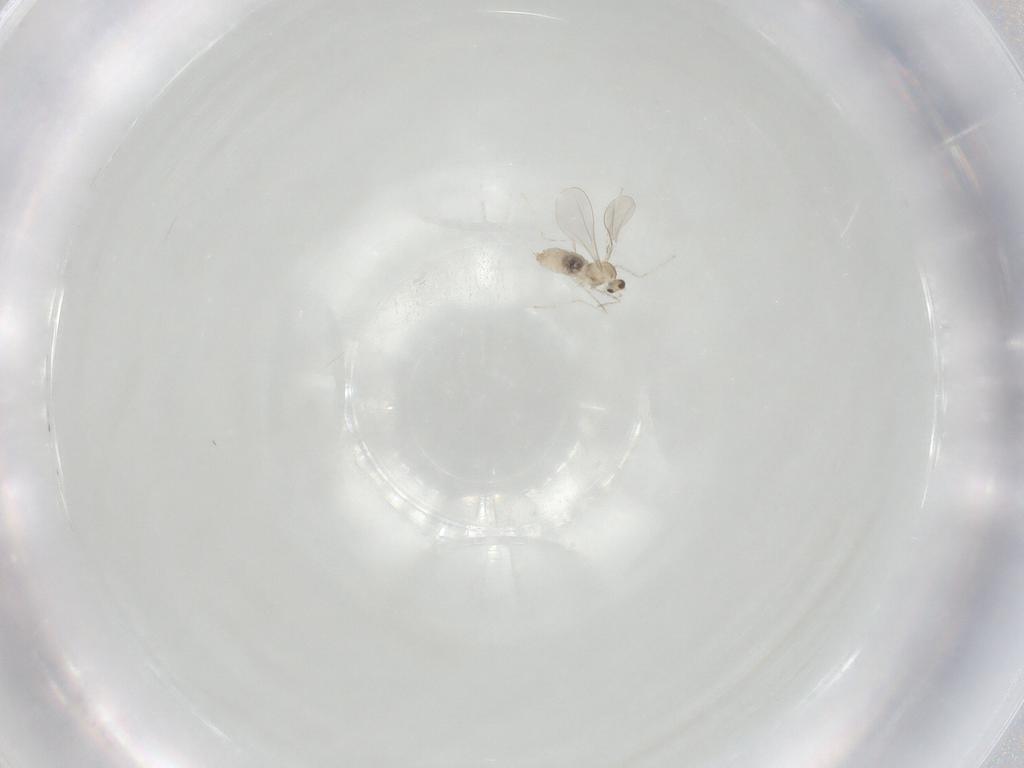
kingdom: Animalia
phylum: Arthropoda
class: Insecta
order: Diptera
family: Cecidomyiidae
